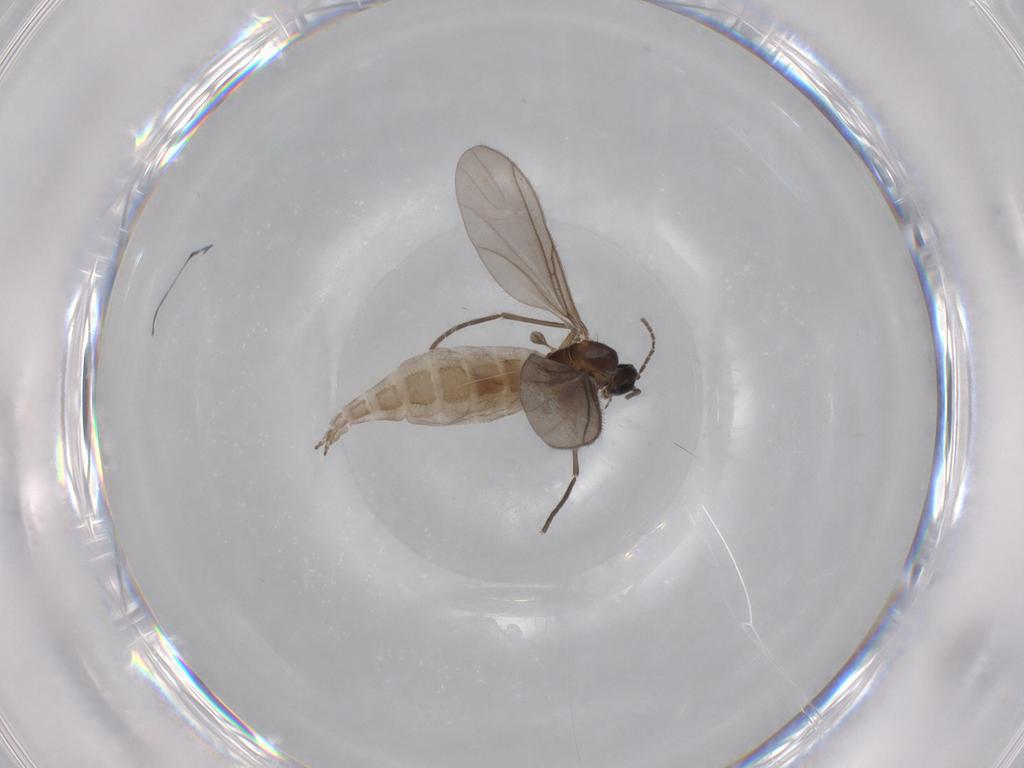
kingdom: Animalia
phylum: Arthropoda
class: Insecta
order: Diptera
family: Sciaridae
